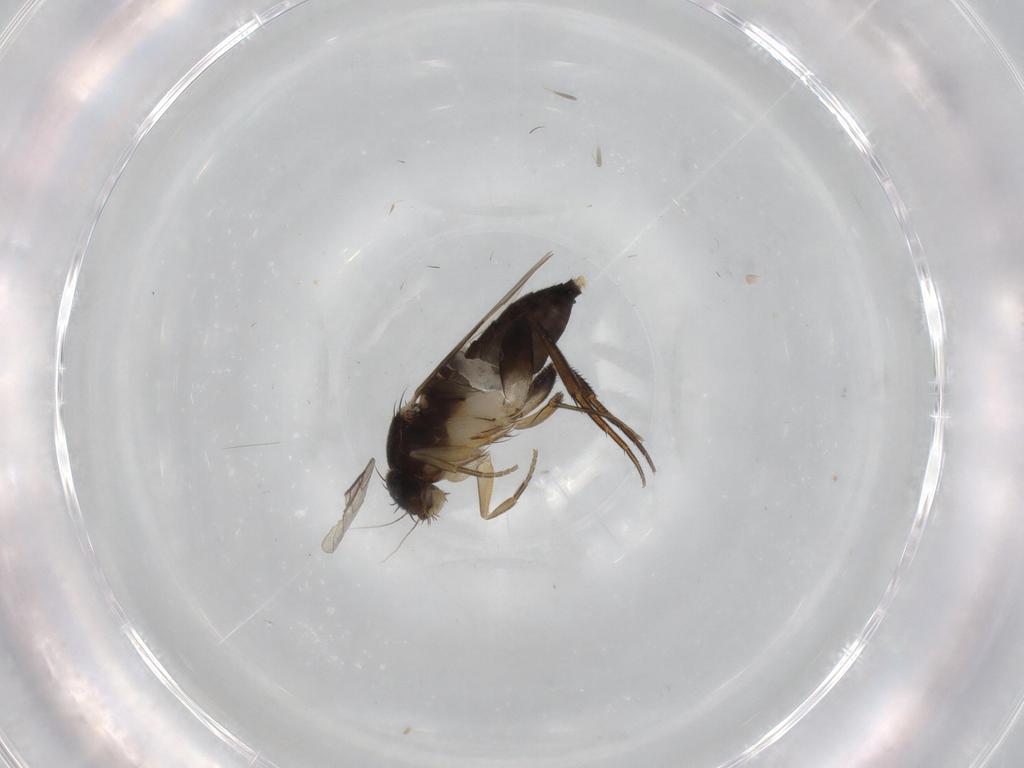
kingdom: Animalia
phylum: Arthropoda
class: Insecta
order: Diptera
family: Phoridae
